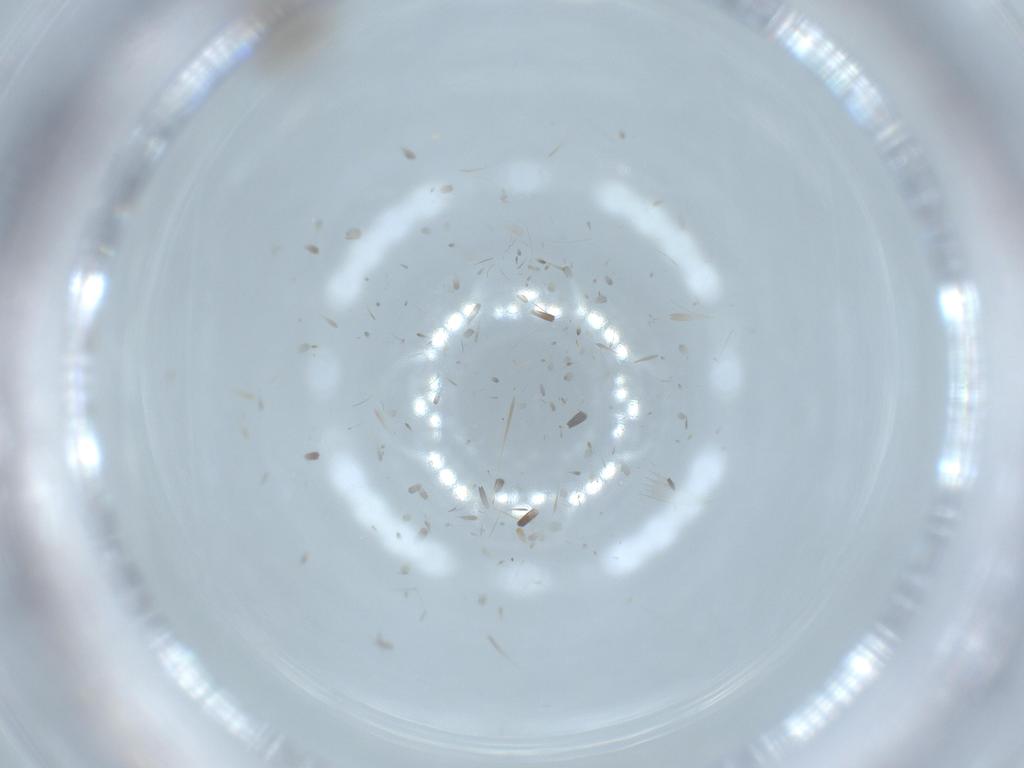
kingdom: Animalia
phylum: Arthropoda
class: Insecta
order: Diptera
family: Chironomidae
